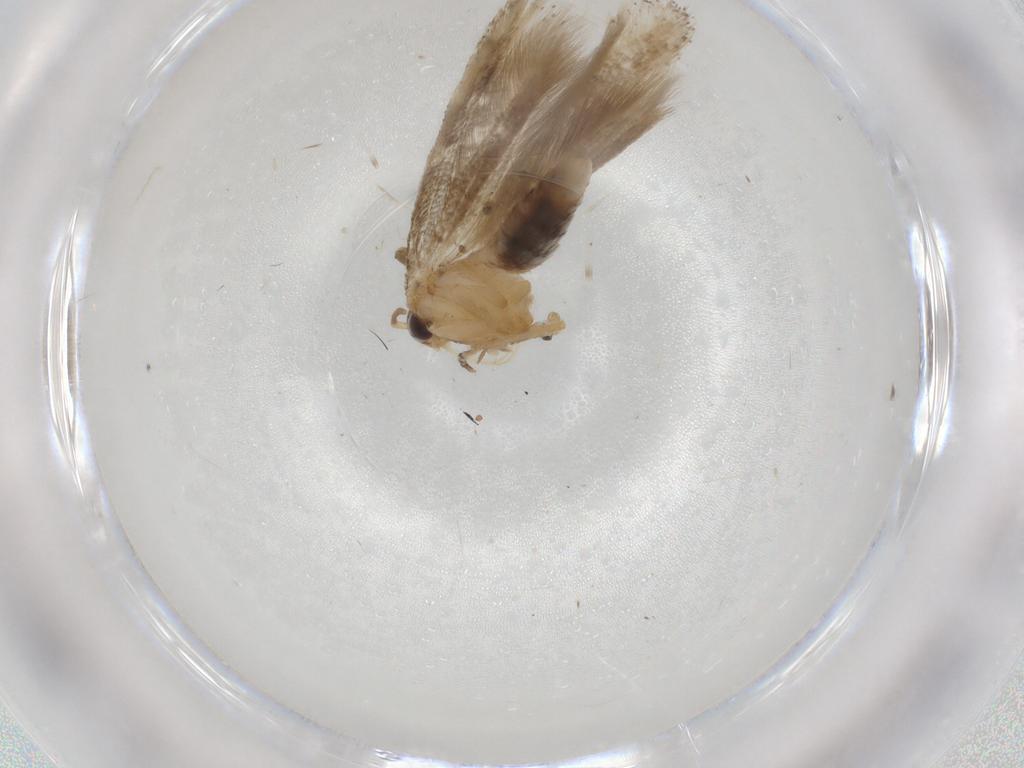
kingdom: Animalia
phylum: Arthropoda
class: Insecta
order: Lepidoptera
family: Gelechiidae
